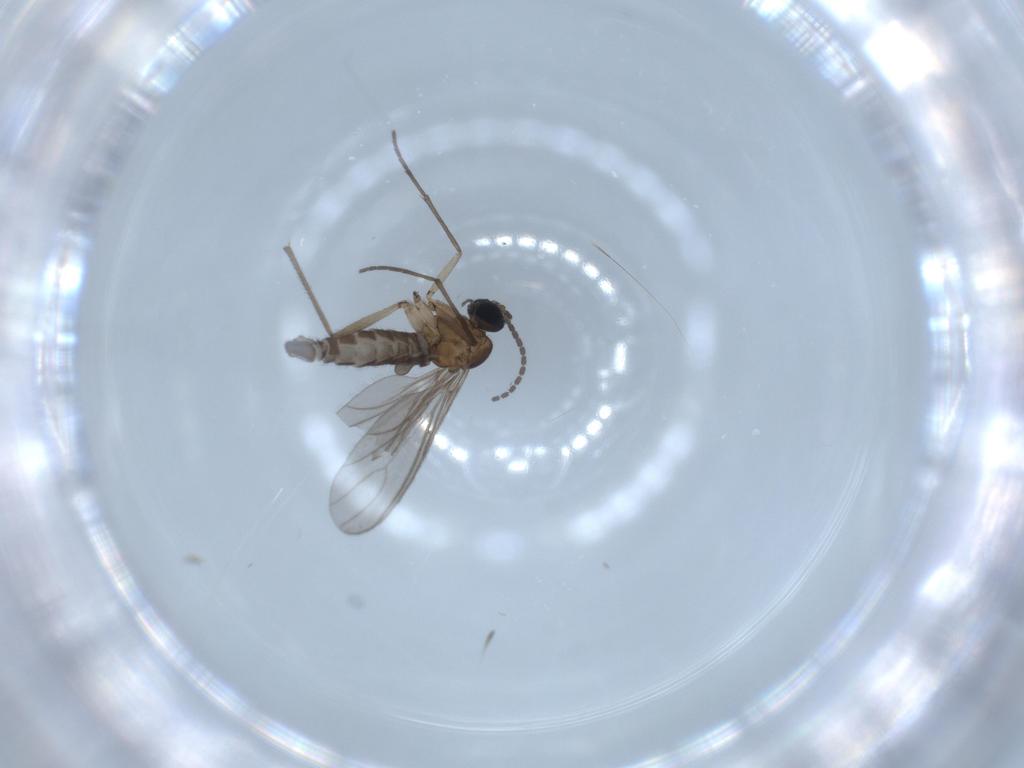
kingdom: Animalia
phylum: Arthropoda
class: Insecta
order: Diptera
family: Sciaridae
